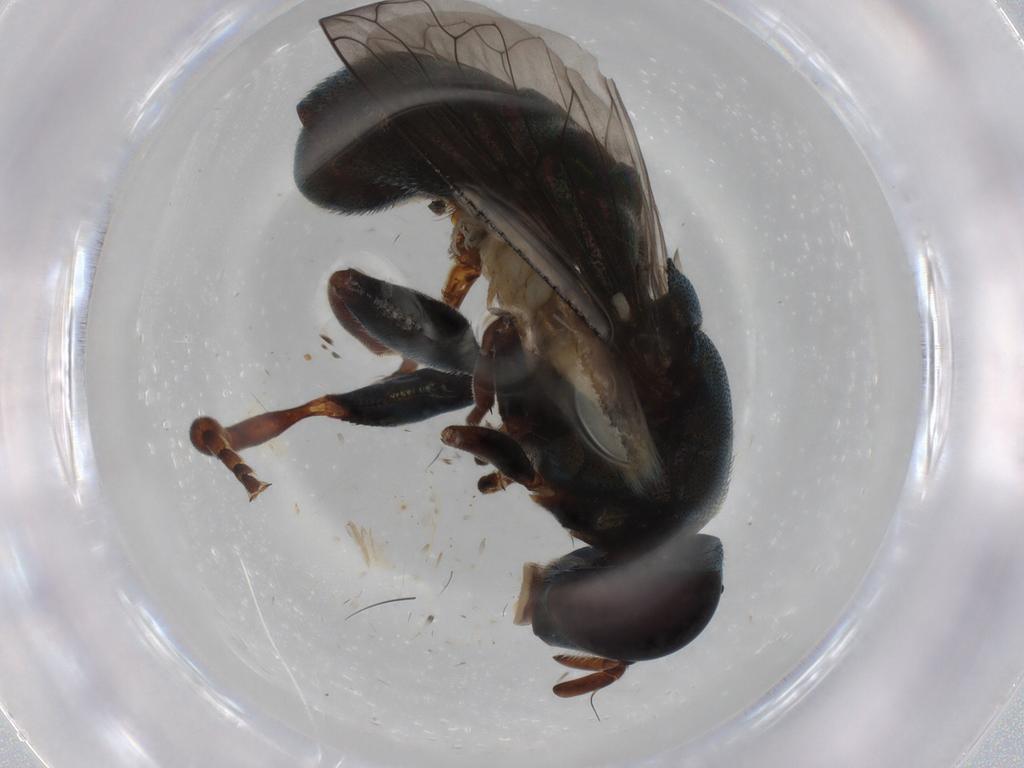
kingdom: Animalia
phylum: Arthropoda
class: Insecta
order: Diptera
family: Syrphidae
